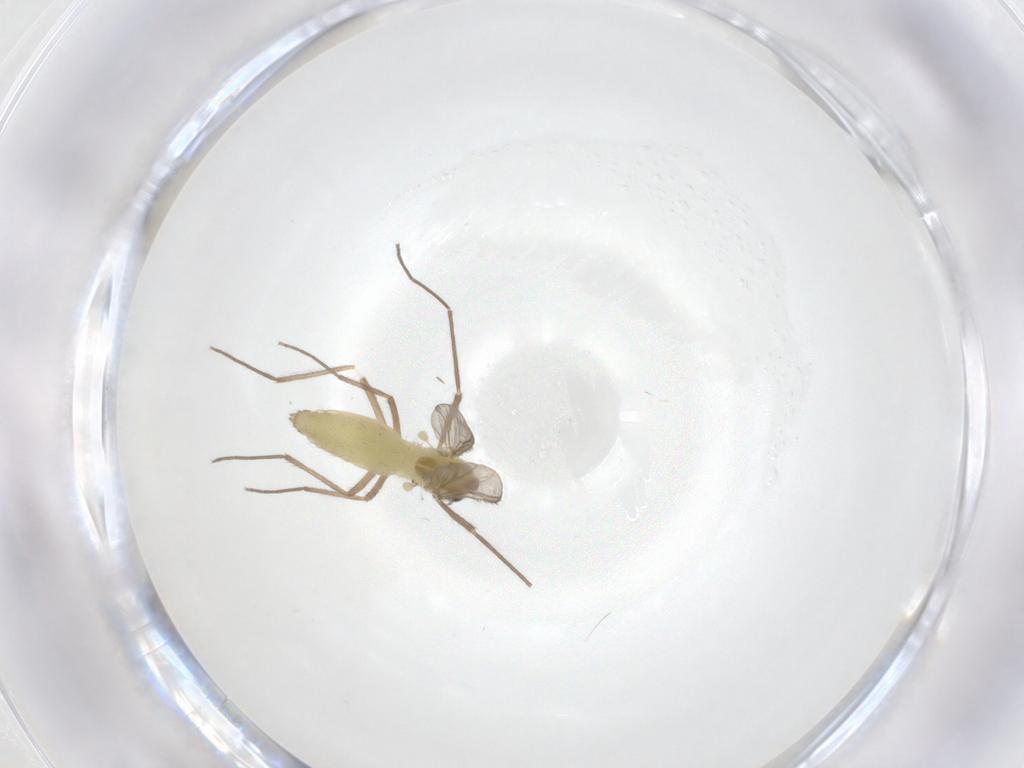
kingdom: Animalia
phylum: Arthropoda
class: Insecta
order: Diptera
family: Chironomidae
